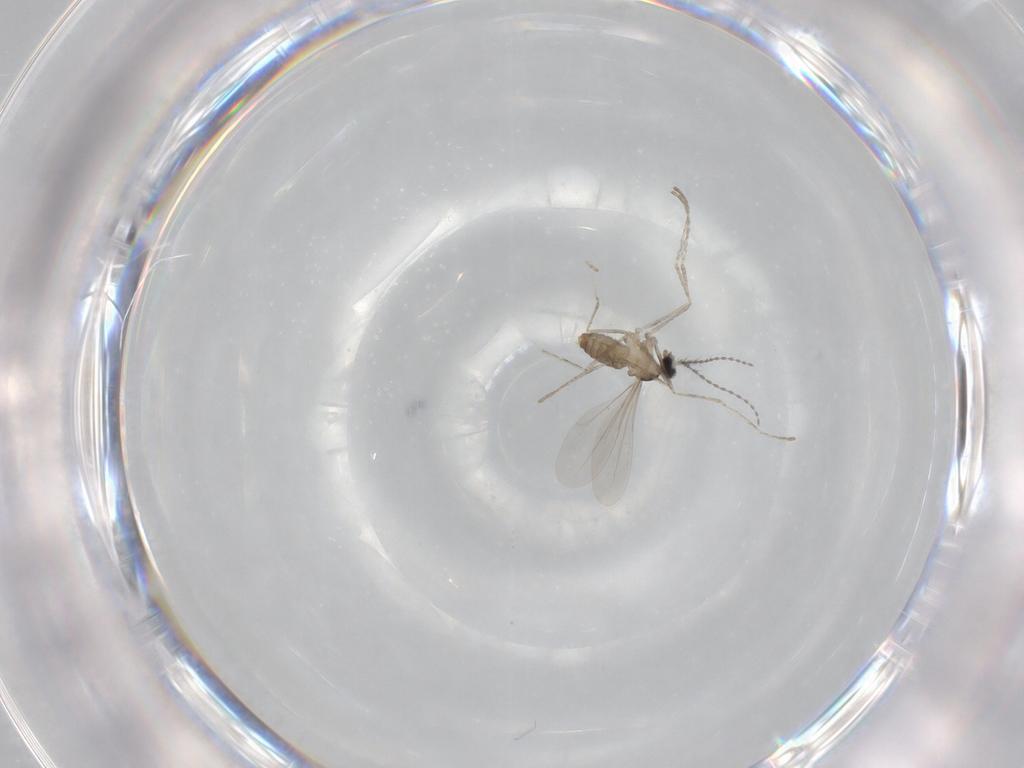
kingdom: Animalia
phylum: Arthropoda
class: Insecta
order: Diptera
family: Cecidomyiidae
